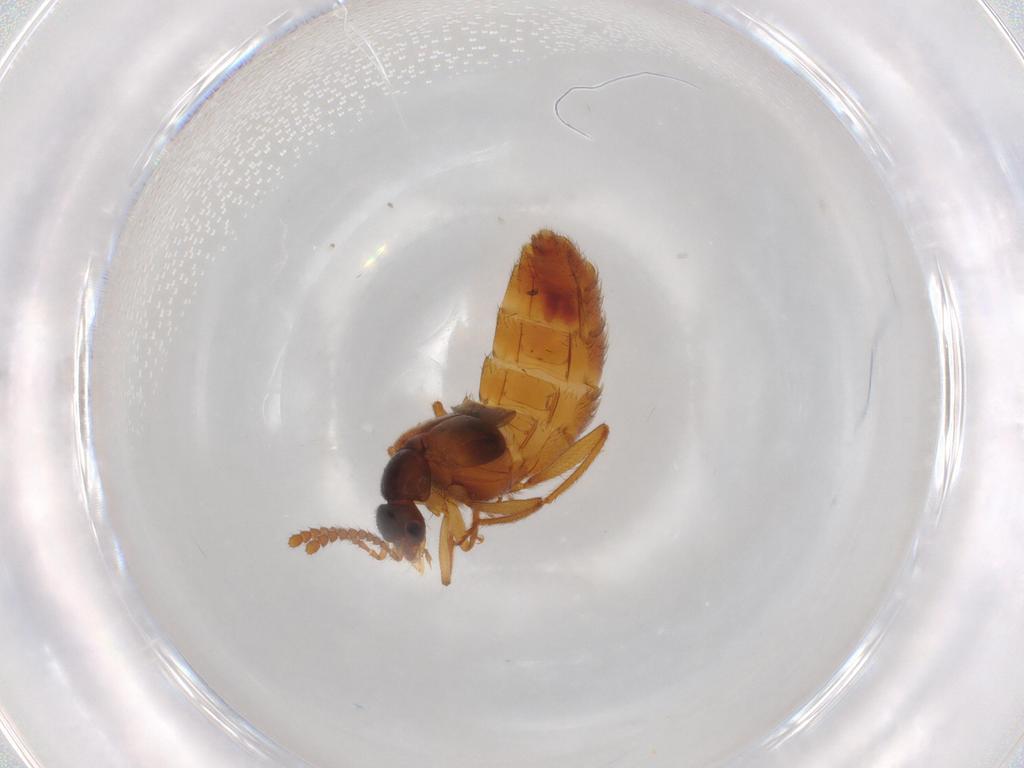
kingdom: Animalia
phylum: Arthropoda
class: Insecta
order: Coleoptera
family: Staphylinidae
